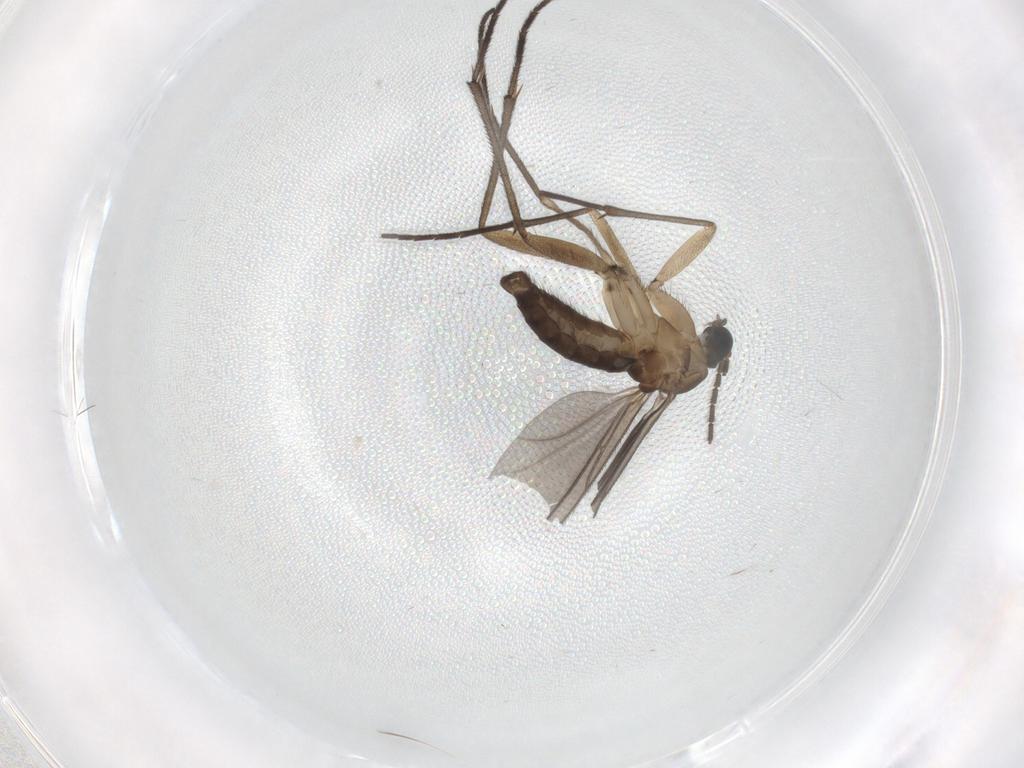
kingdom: Animalia
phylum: Arthropoda
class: Insecta
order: Diptera
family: Sciaridae
